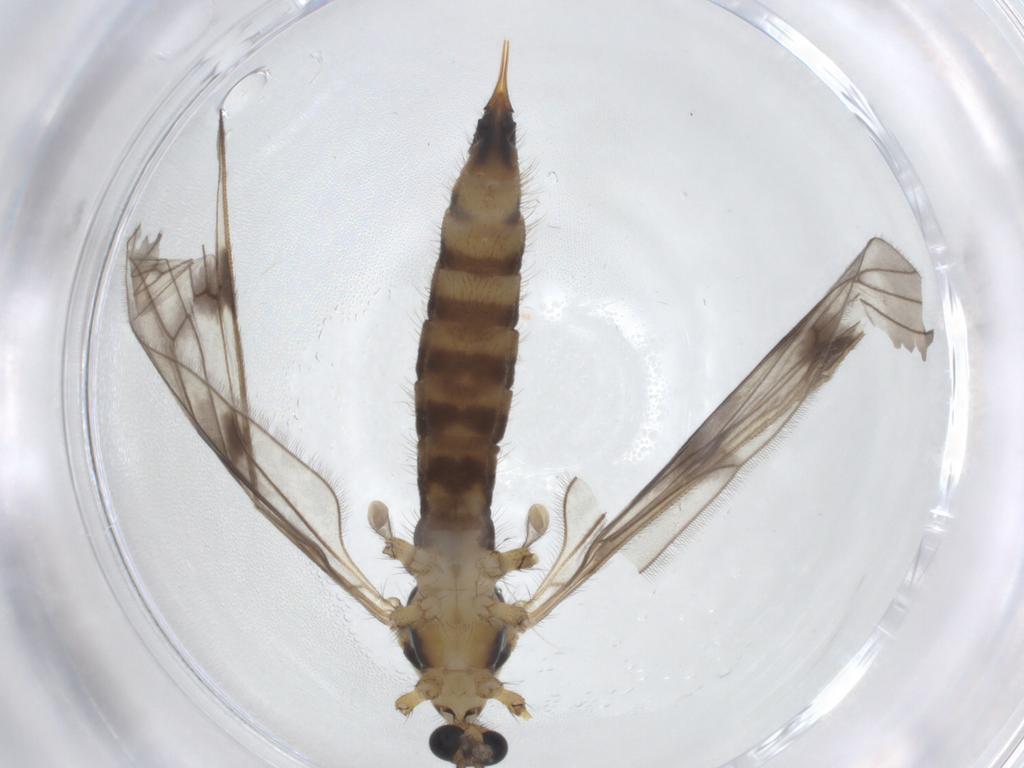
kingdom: Animalia
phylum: Arthropoda
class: Insecta
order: Diptera
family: Limoniidae
